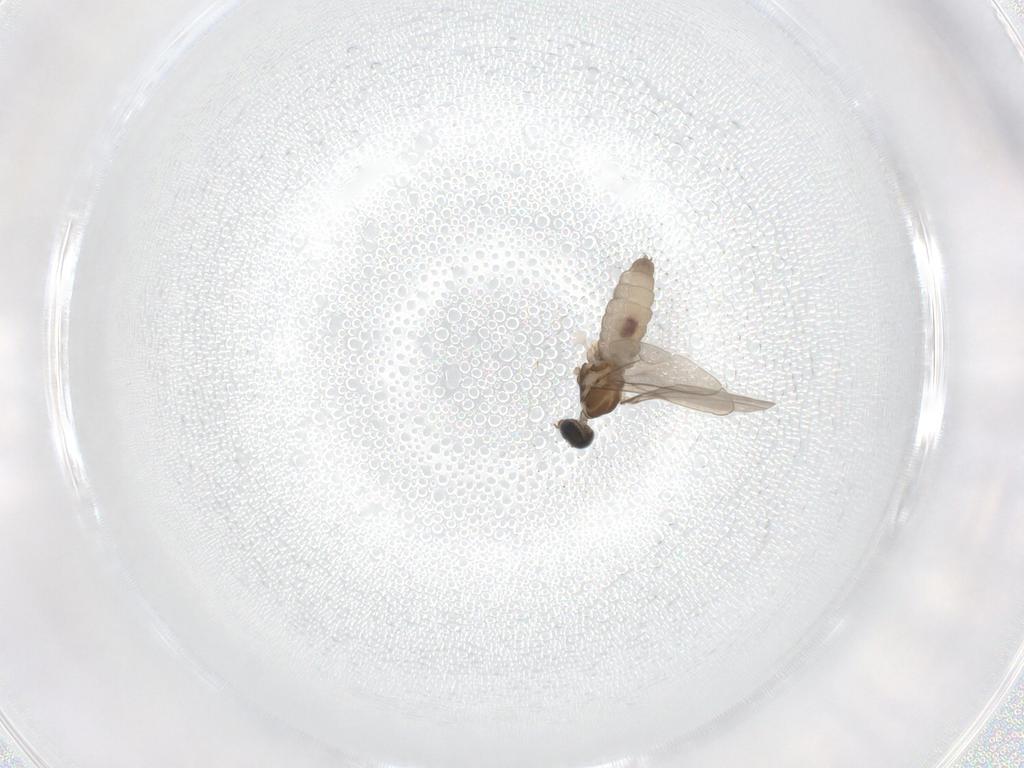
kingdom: Animalia
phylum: Arthropoda
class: Insecta
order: Diptera
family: Cecidomyiidae
